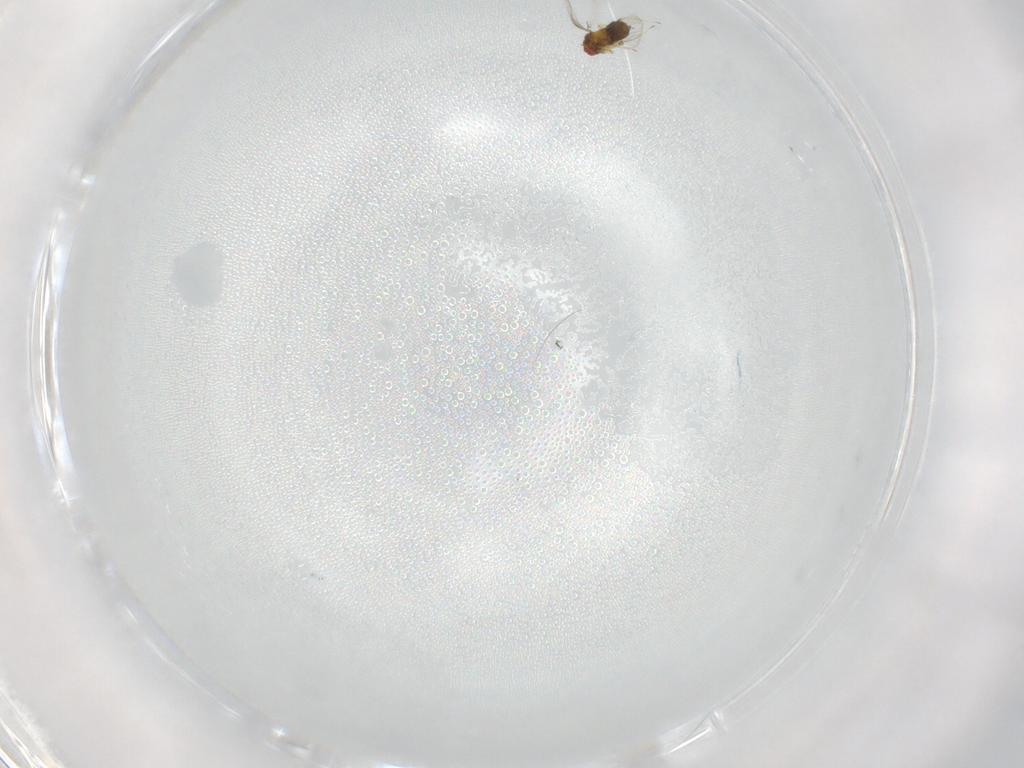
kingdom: Animalia
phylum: Arthropoda
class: Insecta
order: Hymenoptera
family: Trichogrammatidae
